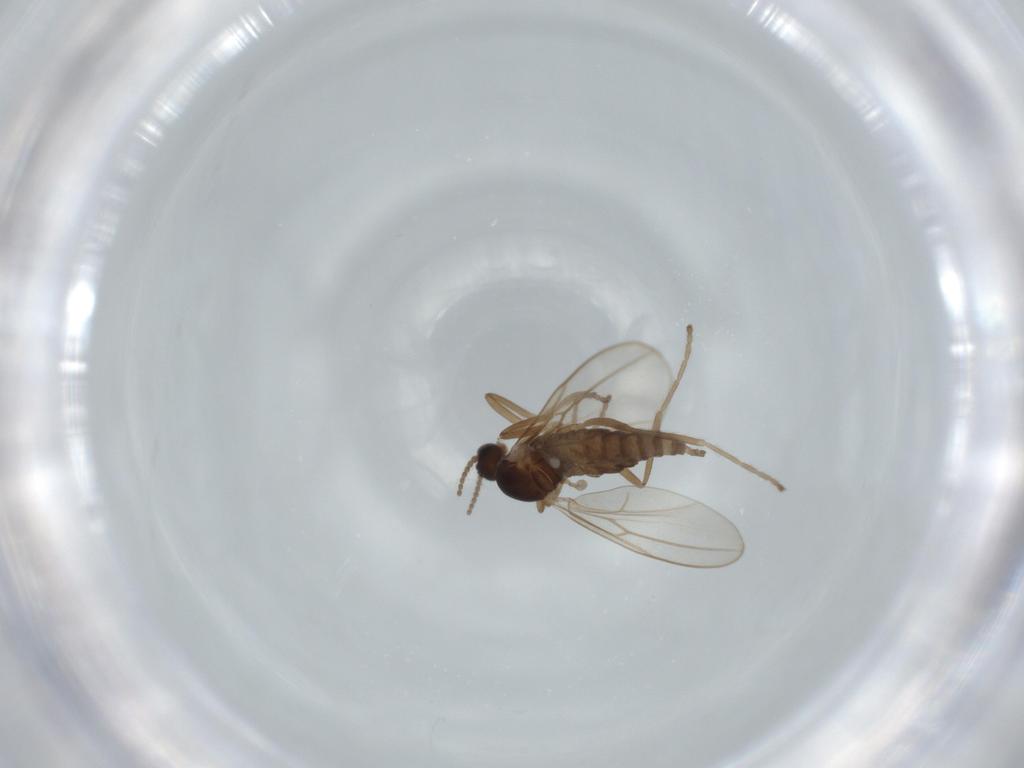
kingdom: Animalia
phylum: Arthropoda
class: Insecta
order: Diptera
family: Cecidomyiidae
